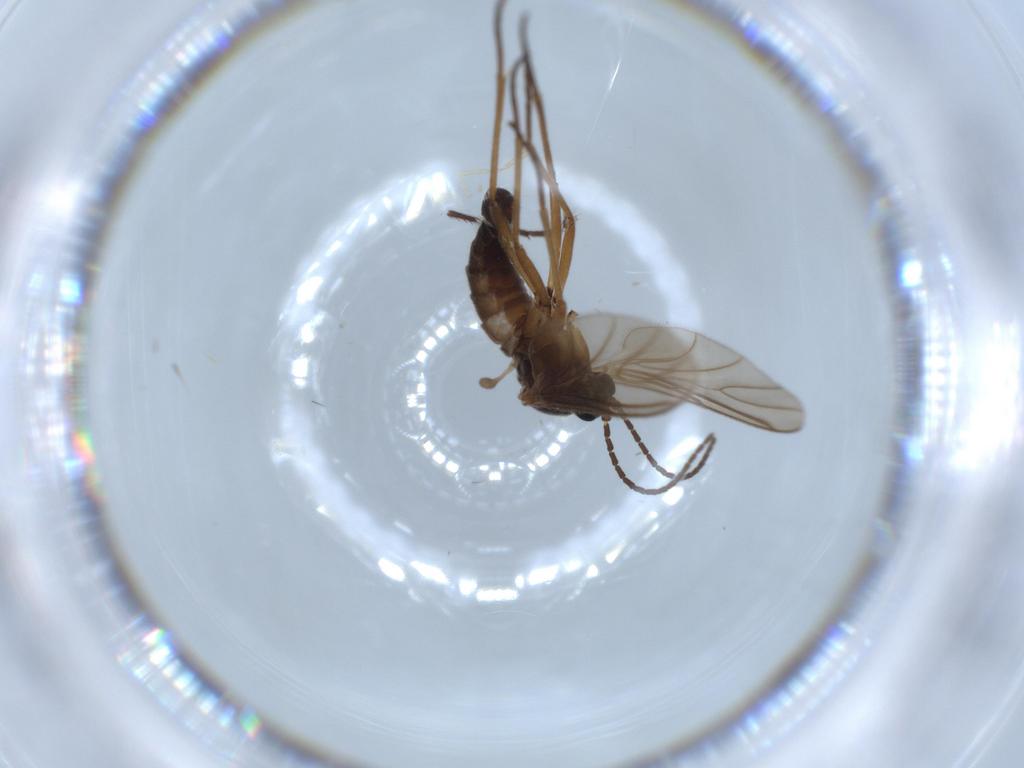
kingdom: Animalia
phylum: Arthropoda
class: Insecta
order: Diptera
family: Sciaridae
